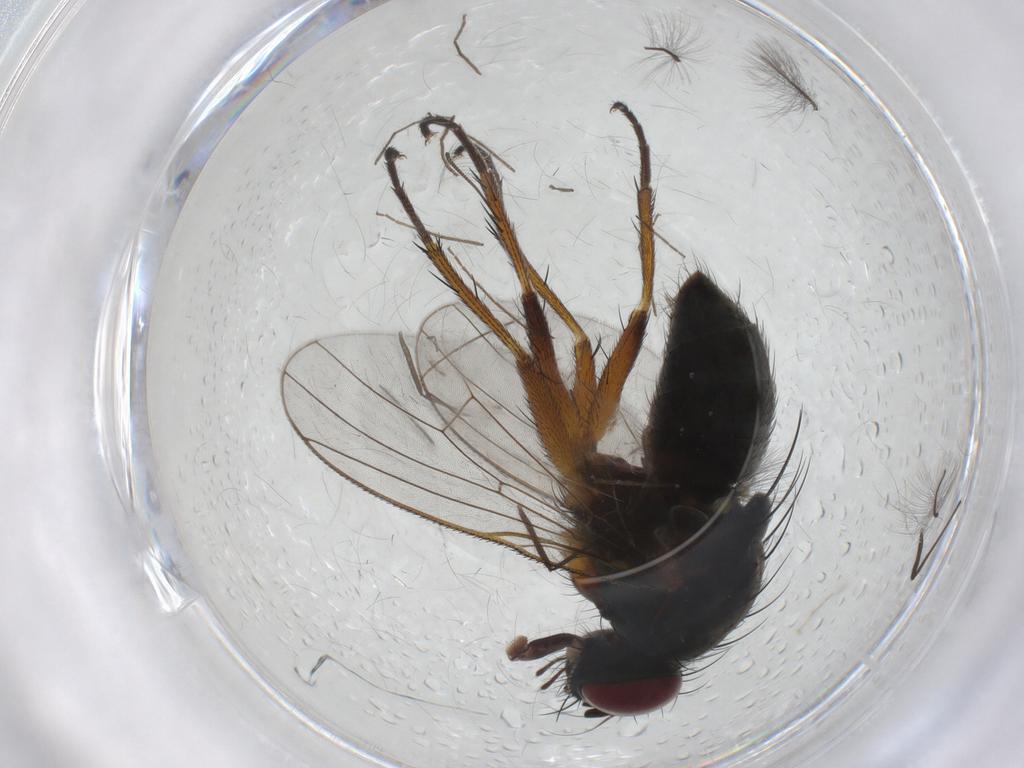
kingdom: Animalia
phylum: Arthropoda
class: Insecta
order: Diptera
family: Muscidae
